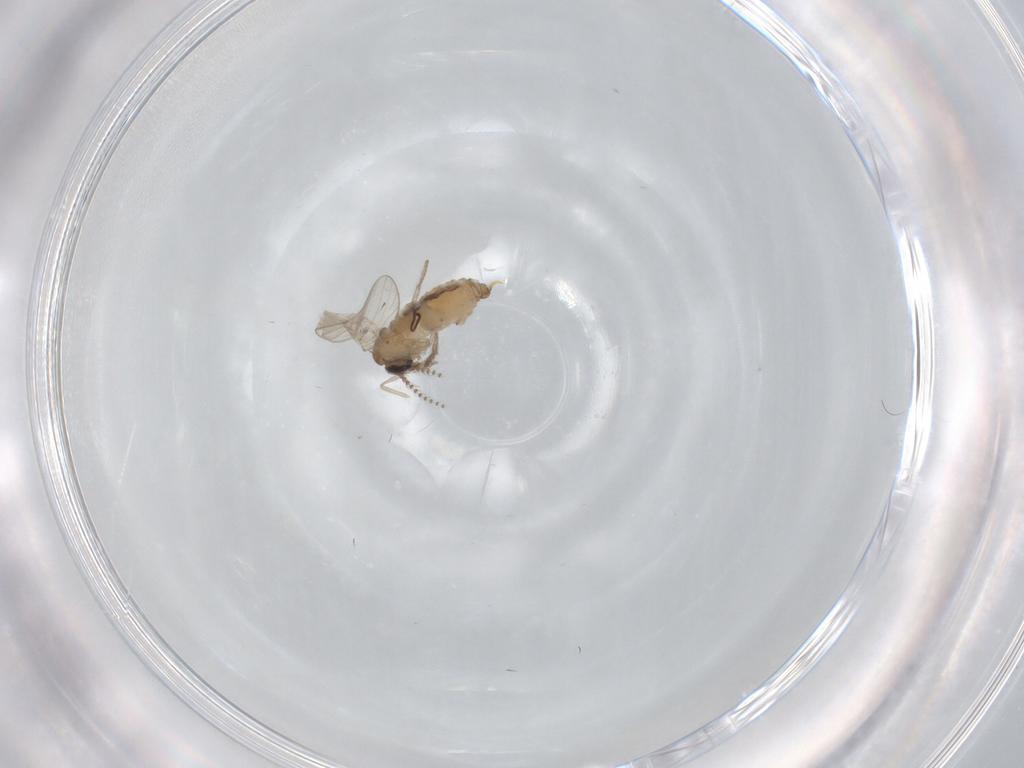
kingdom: Animalia
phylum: Arthropoda
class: Insecta
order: Diptera
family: Psychodidae
